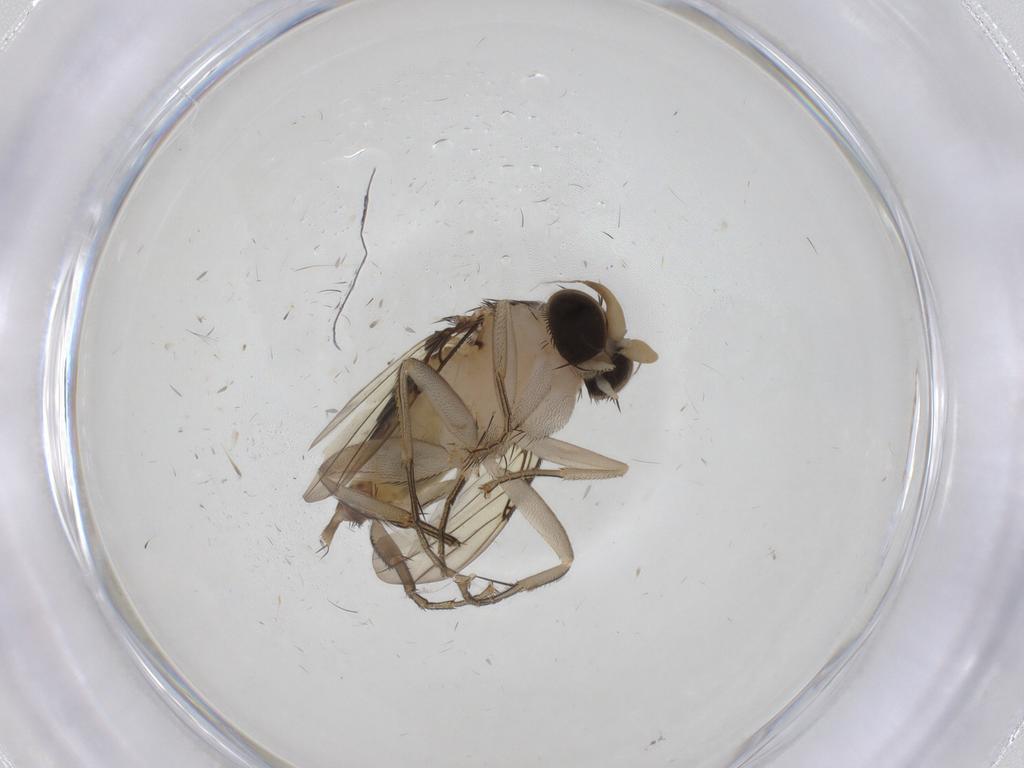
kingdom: Animalia
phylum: Arthropoda
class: Insecta
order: Diptera
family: Phoridae
